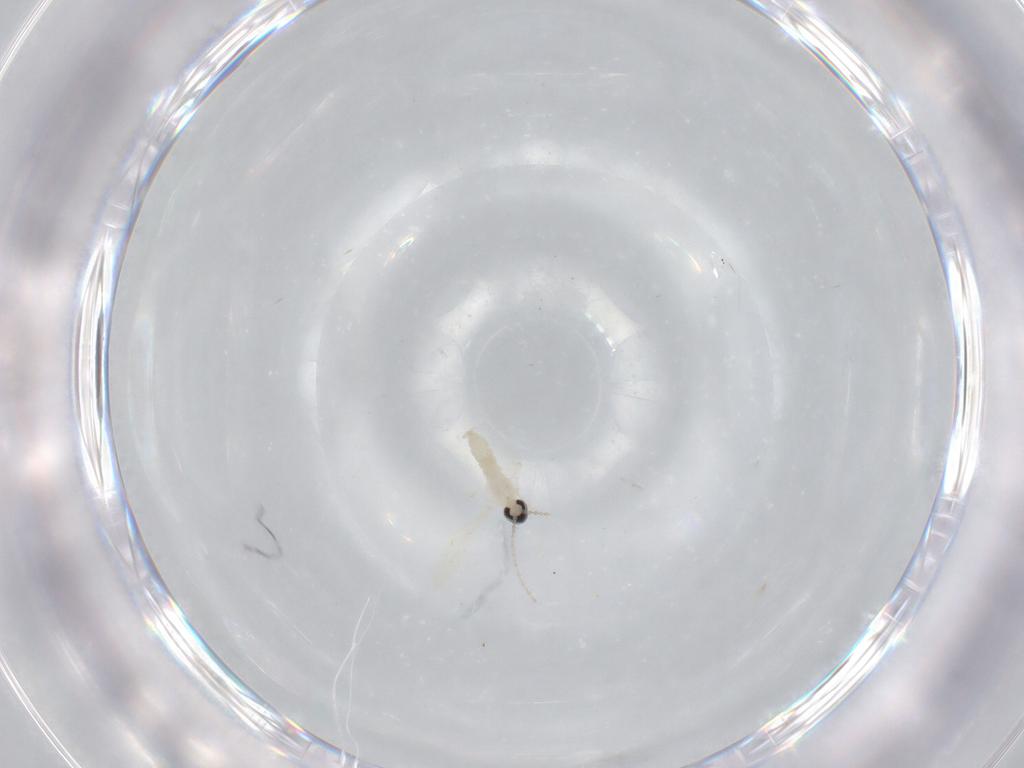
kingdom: Animalia
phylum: Arthropoda
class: Insecta
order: Diptera
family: Cecidomyiidae
